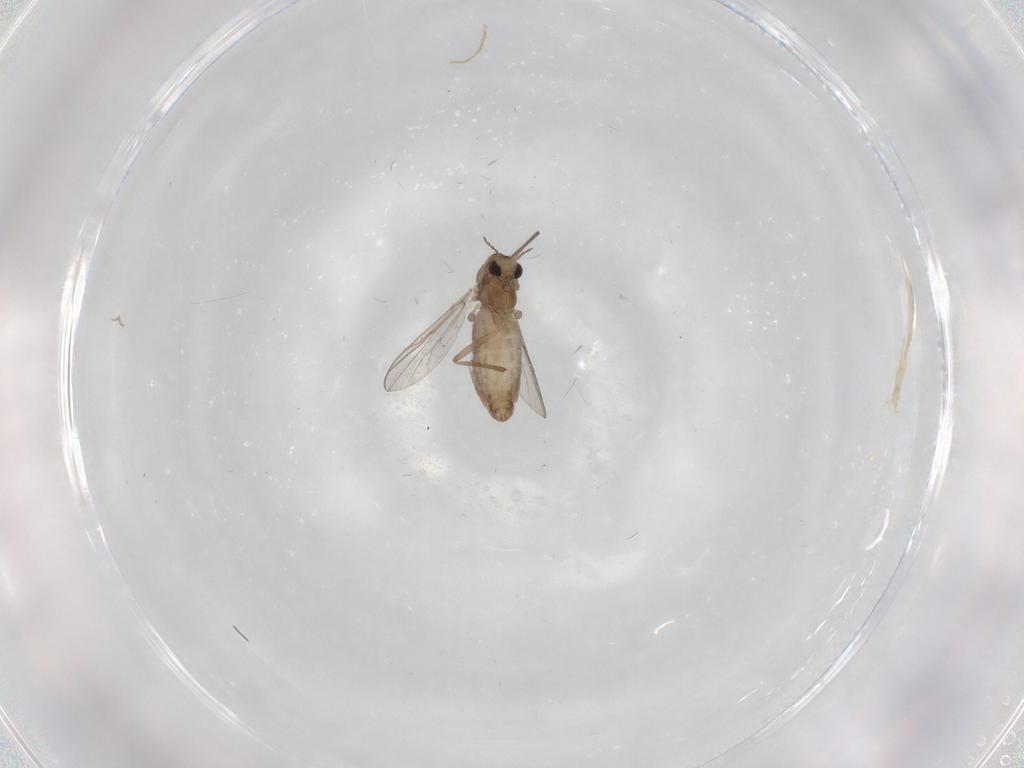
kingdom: Animalia
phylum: Arthropoda
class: Insecta
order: Diptera
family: Chironomidae
